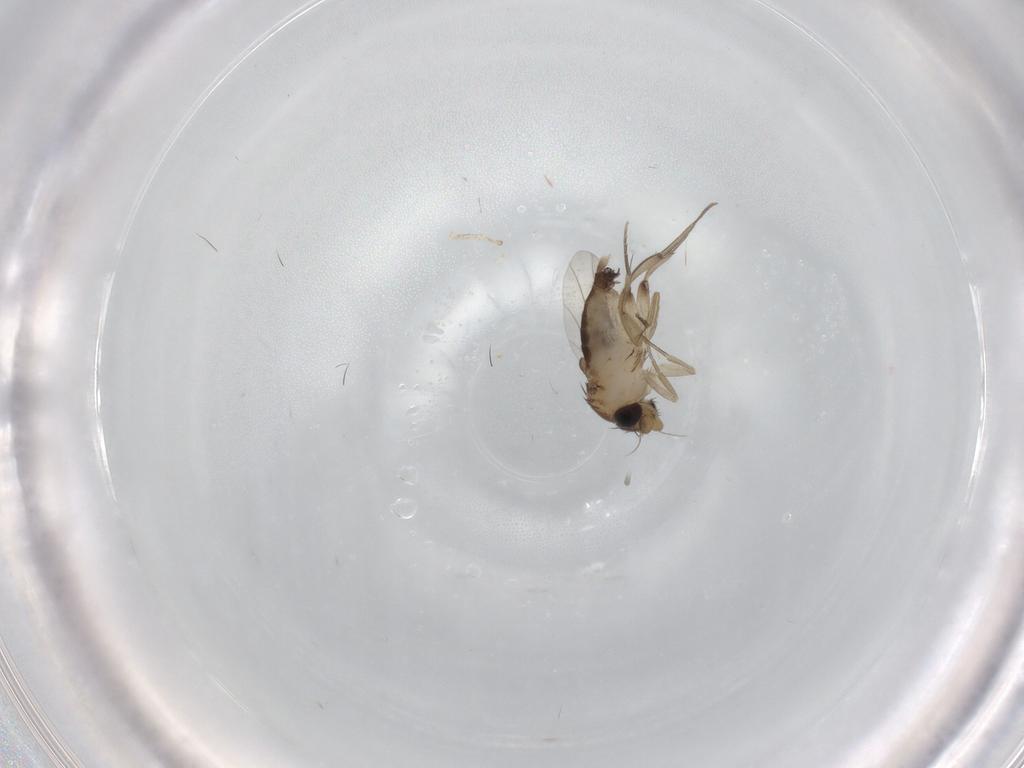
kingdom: Animalia
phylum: Arthropoda
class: Insecta
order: Diptera
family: Phoridae
